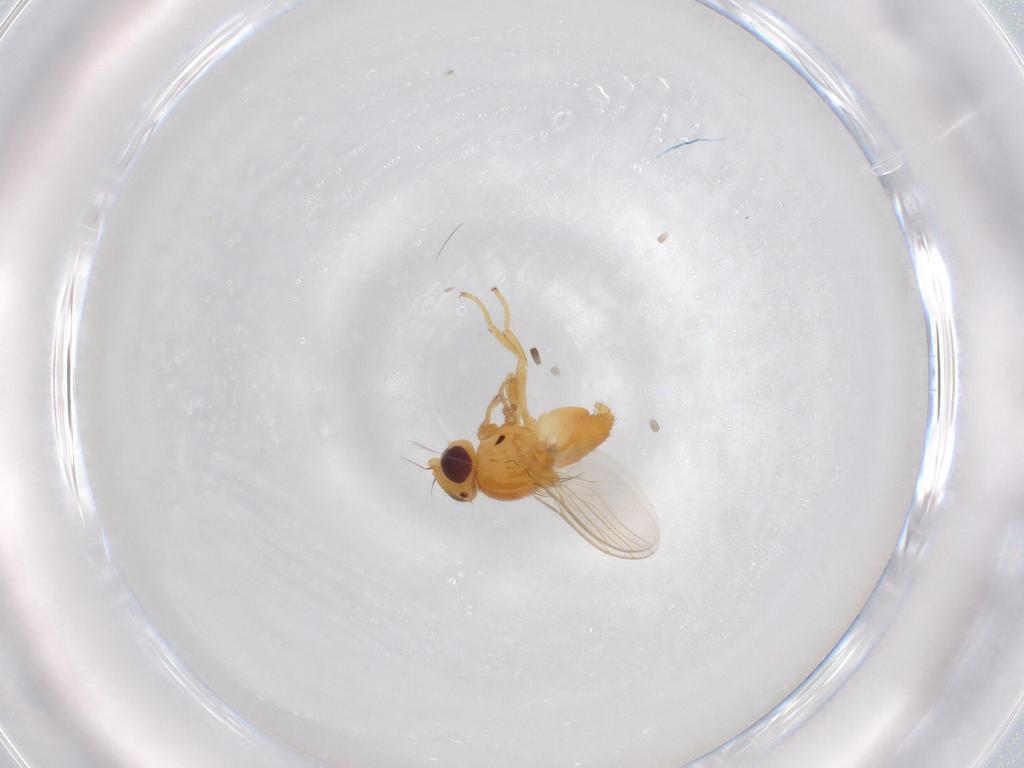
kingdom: Animalia
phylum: Arthropoda
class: Insecta
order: Diptera
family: Chloropidae
